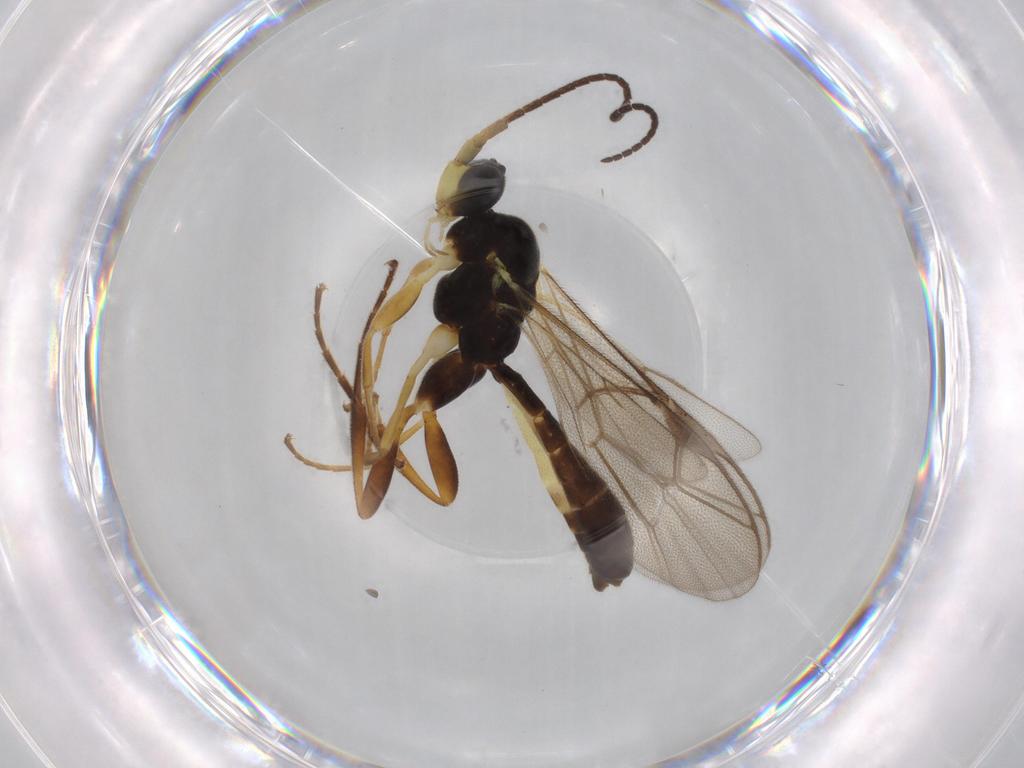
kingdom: Animalia
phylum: Arthropoda
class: Insecta
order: Hymenoptera
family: Ichneumonidae
